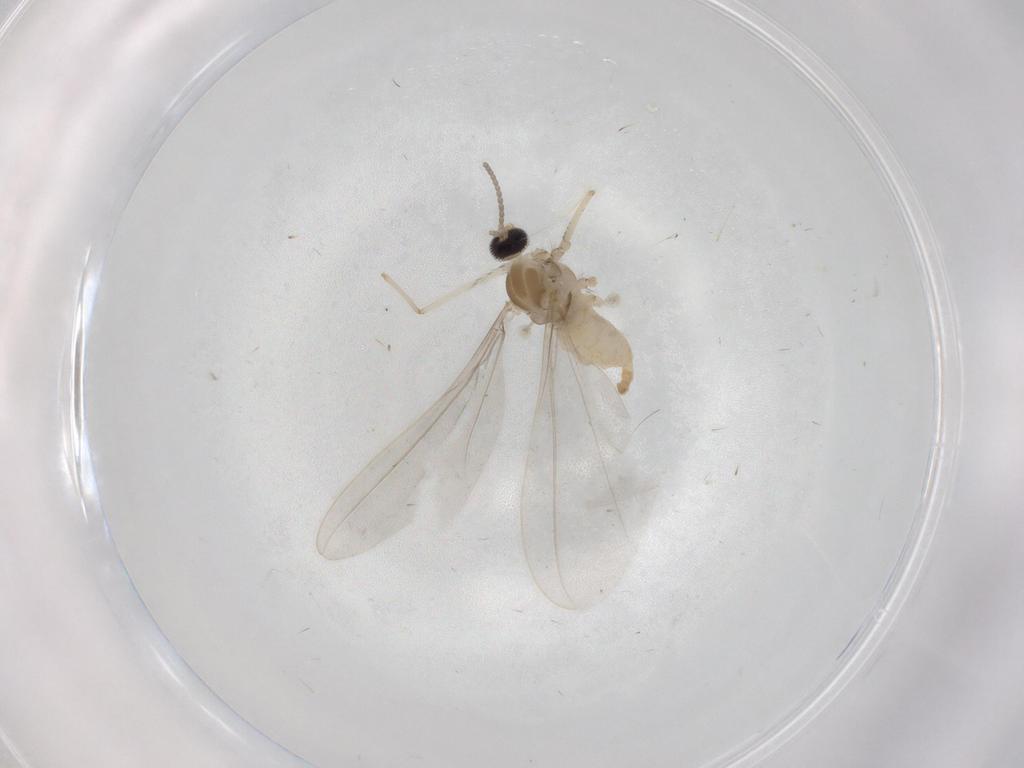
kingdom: Animalia
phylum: Arthropoda
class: Insecta
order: Diptera
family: Hybotidae
